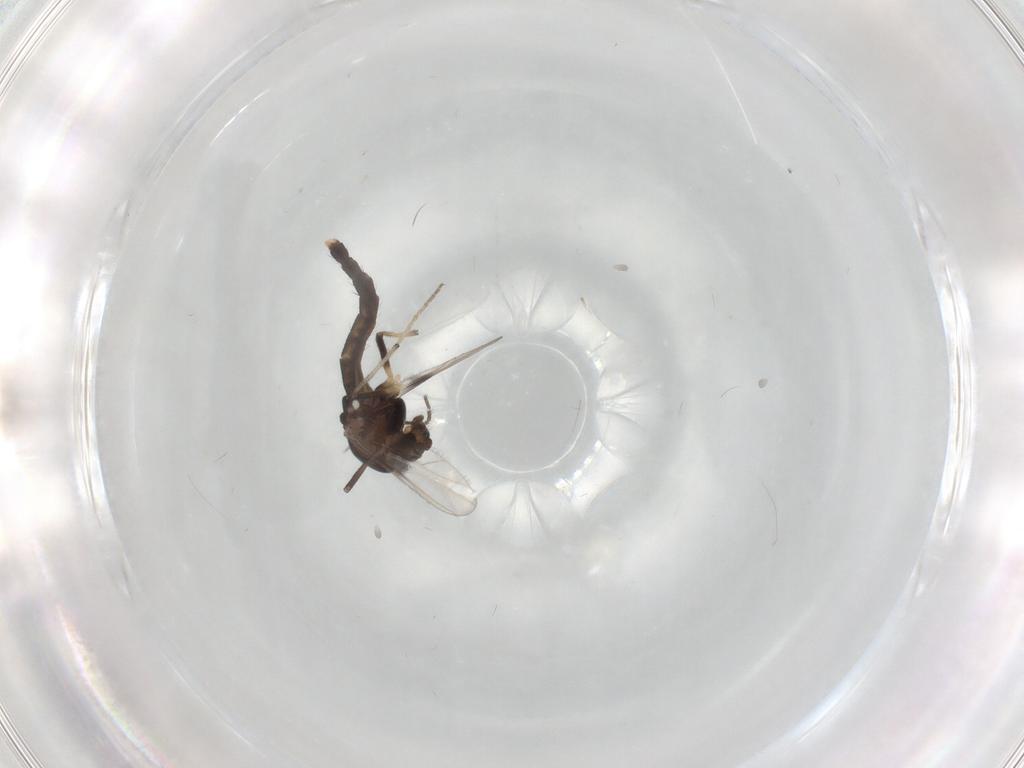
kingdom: Animalia
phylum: Arthropoda
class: Insecta
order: Diptera
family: Chironomidae
